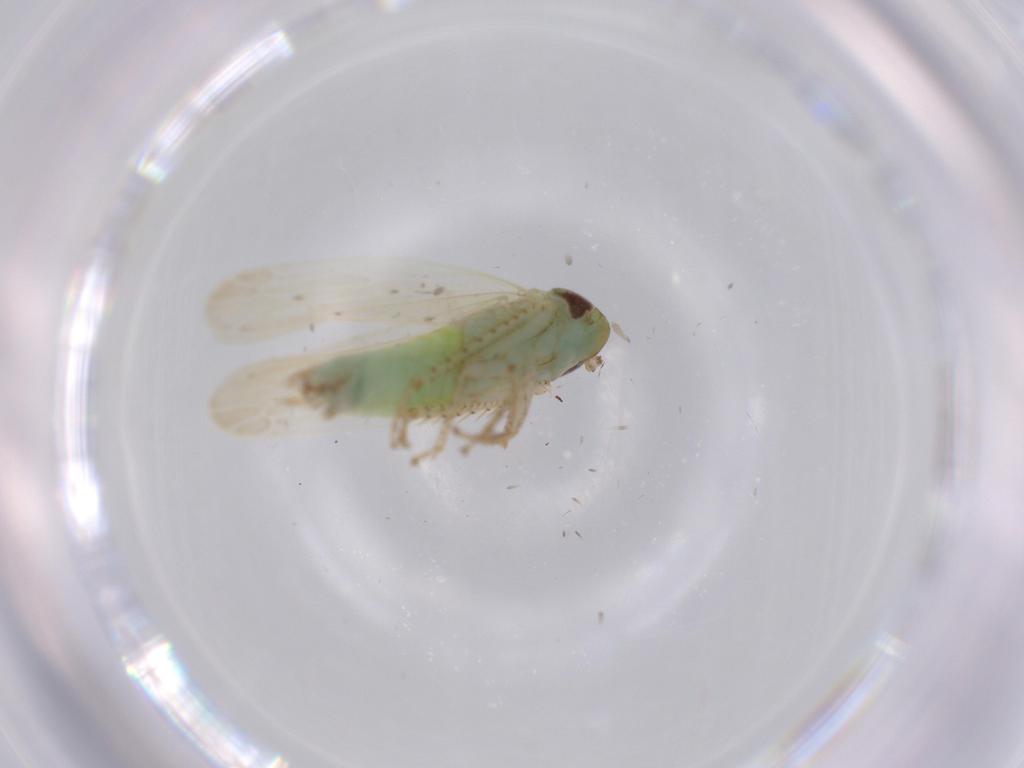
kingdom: Animalia
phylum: Arthropoda
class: Insecta
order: Hemiptera
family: Cicadellidae
